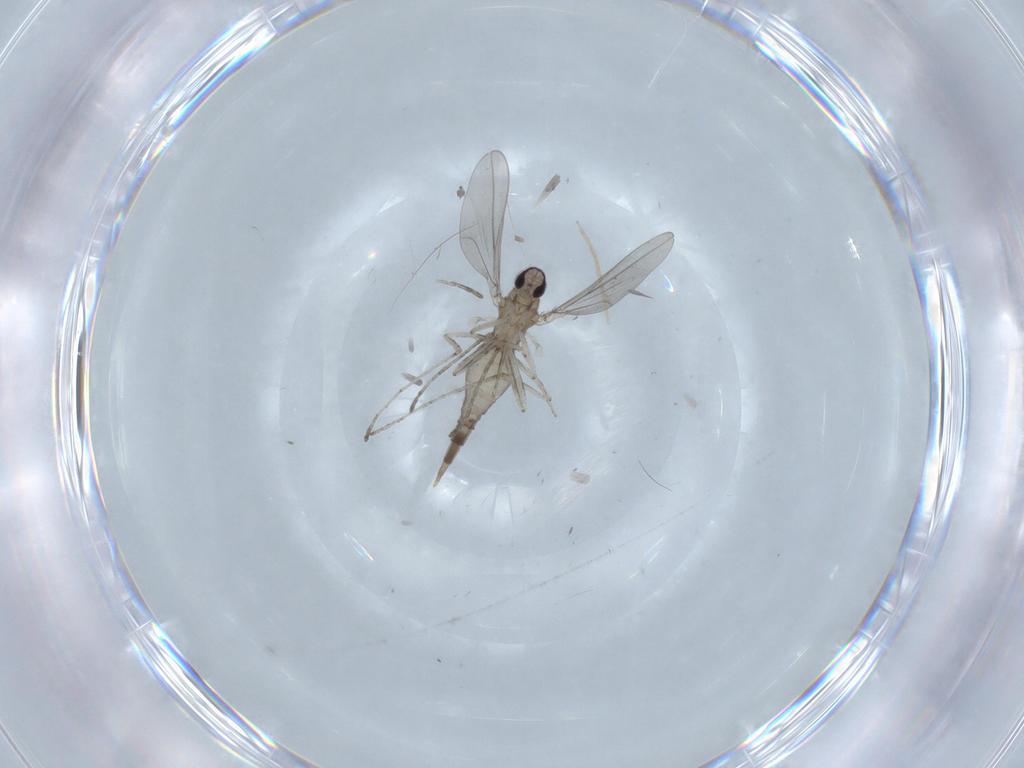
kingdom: Animalia
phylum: Arthropoda
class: Insecta
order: Diptera
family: Cecidomyiidae
